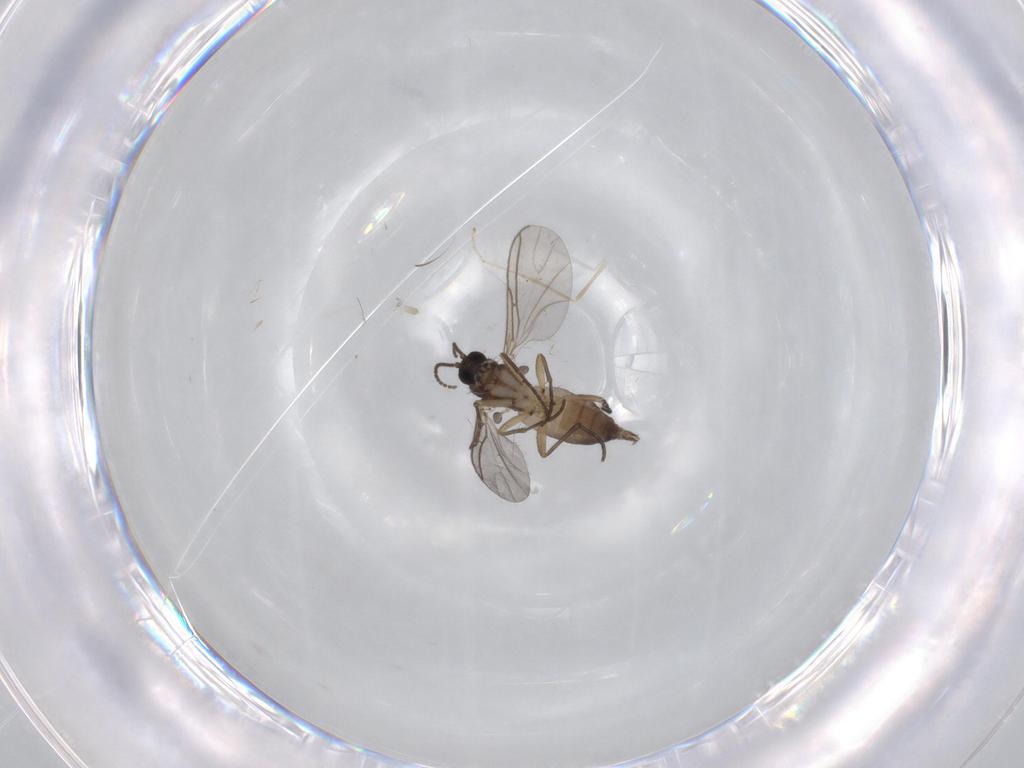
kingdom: Animalia
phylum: Arthropoda
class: Insecta
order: Diptera
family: Sciaridae
